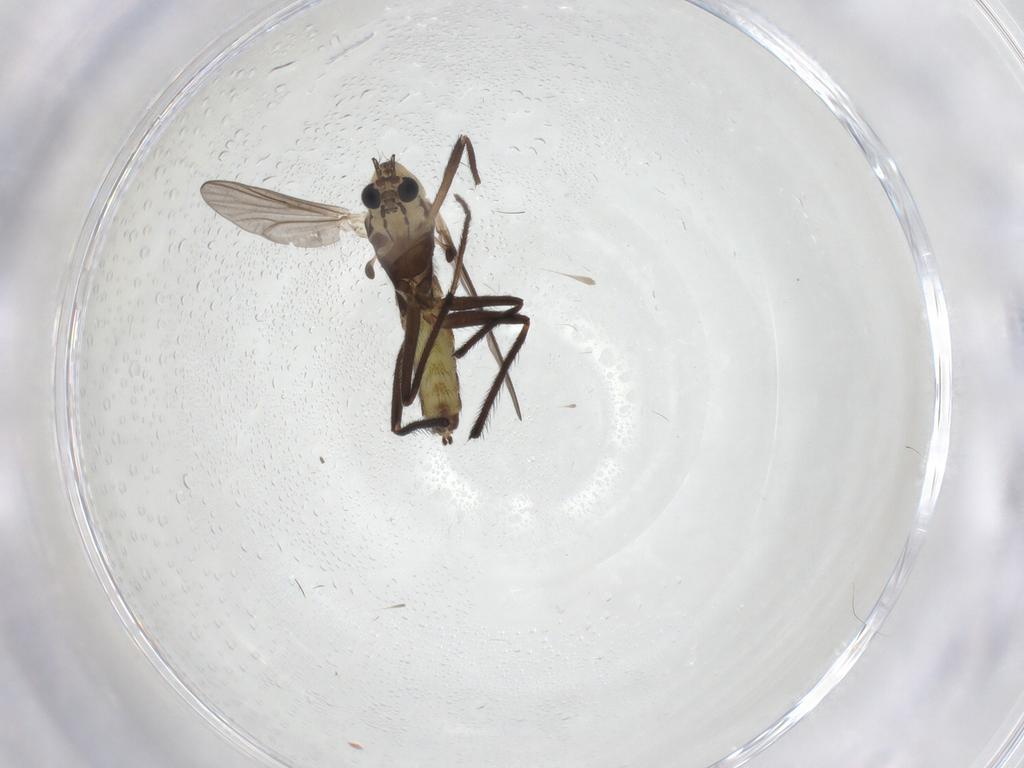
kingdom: Animalia
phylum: Arthropoda
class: Insecta
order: Diptera
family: Chironomidae
